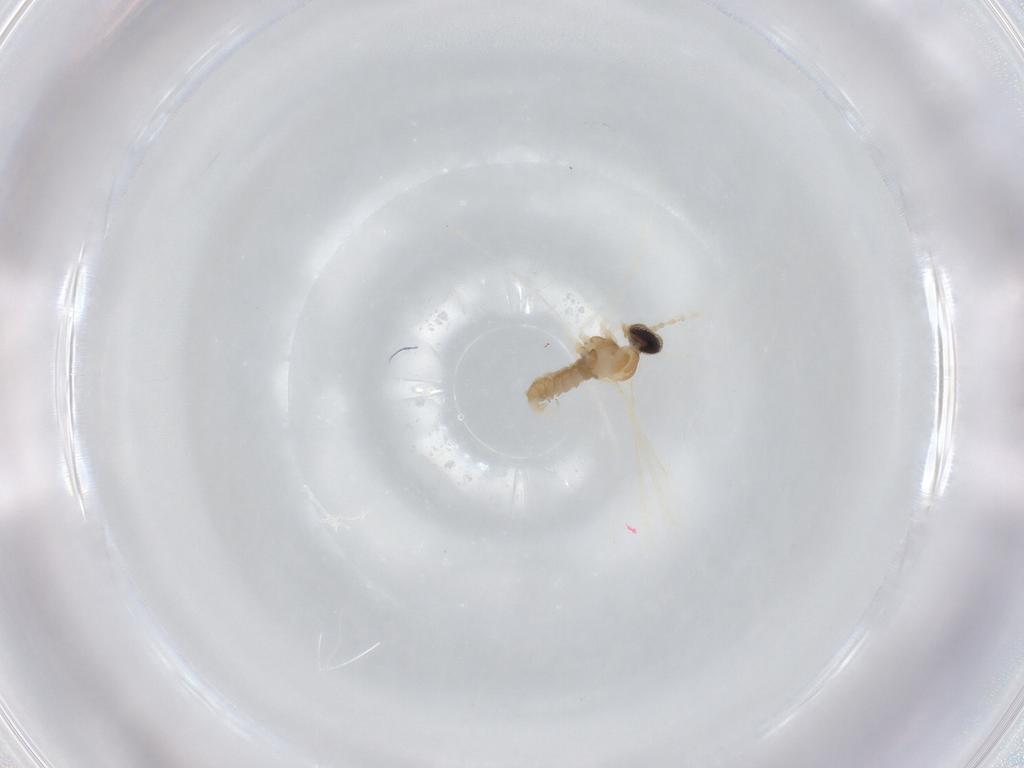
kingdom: Animalia
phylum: Arthropoda
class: Insecta
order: Diptera
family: Cecidomyiidae
